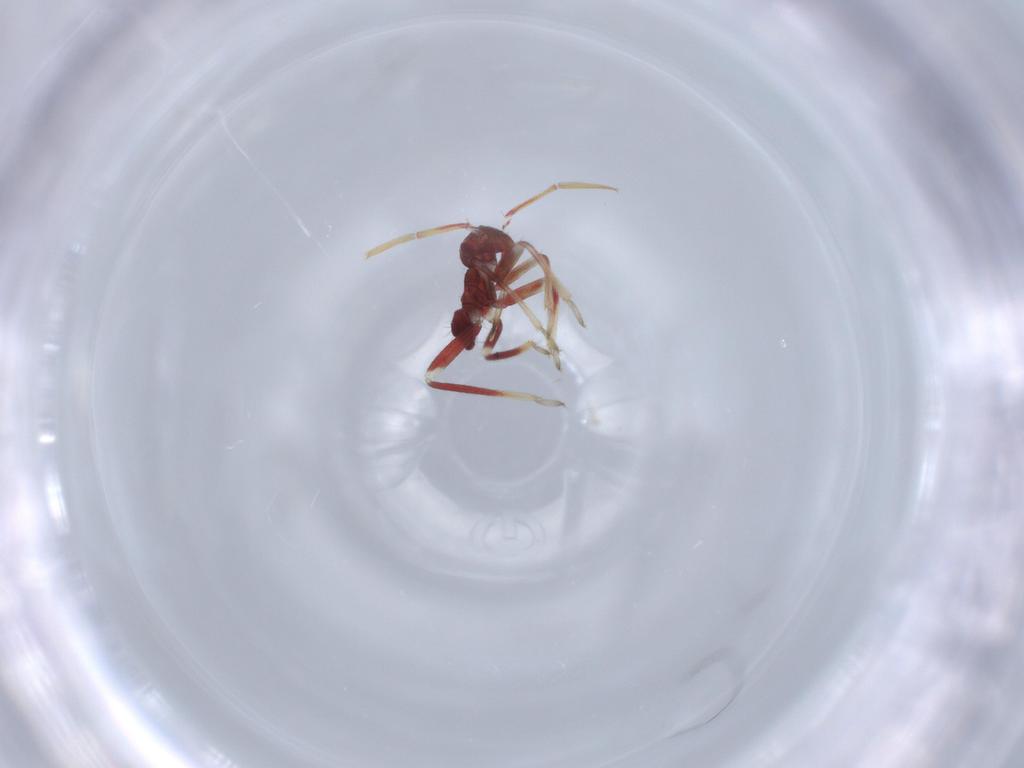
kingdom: Animalia
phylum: Arthropoda
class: Insecta
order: Hemiptera
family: Miridae
